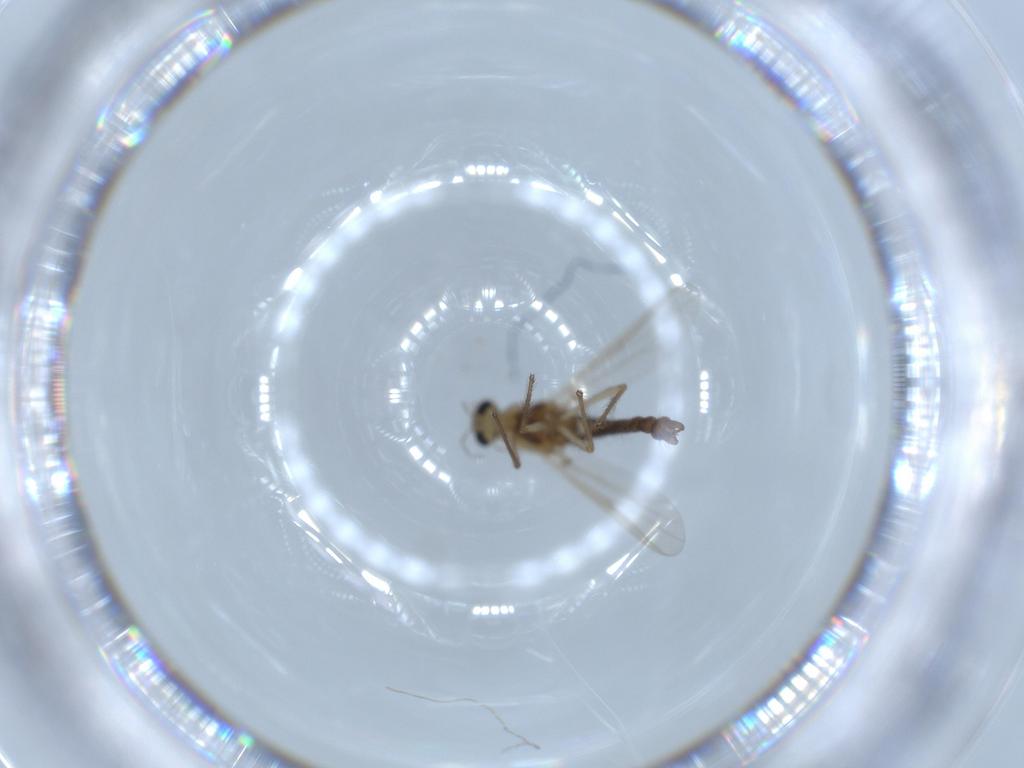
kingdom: Animalia
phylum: Arthropoda
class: Insecta
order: Diptera
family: Chironomidae
